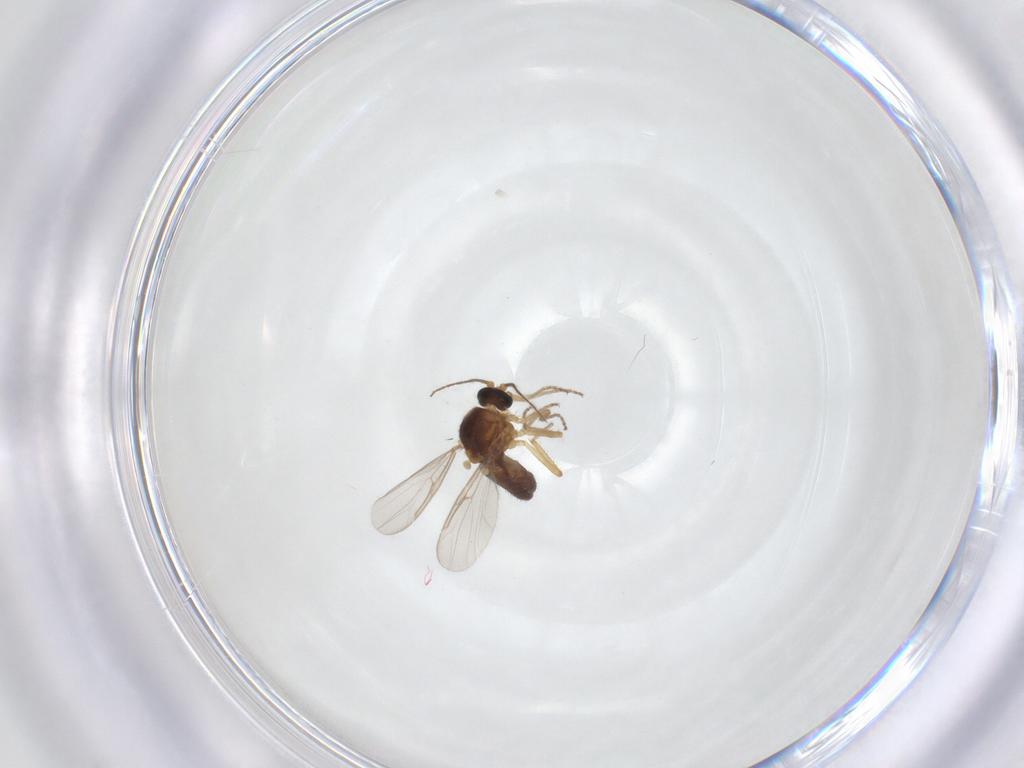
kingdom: Animalia
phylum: Arthropoda
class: Insecta
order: Diptera
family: Ceratopogonidae
